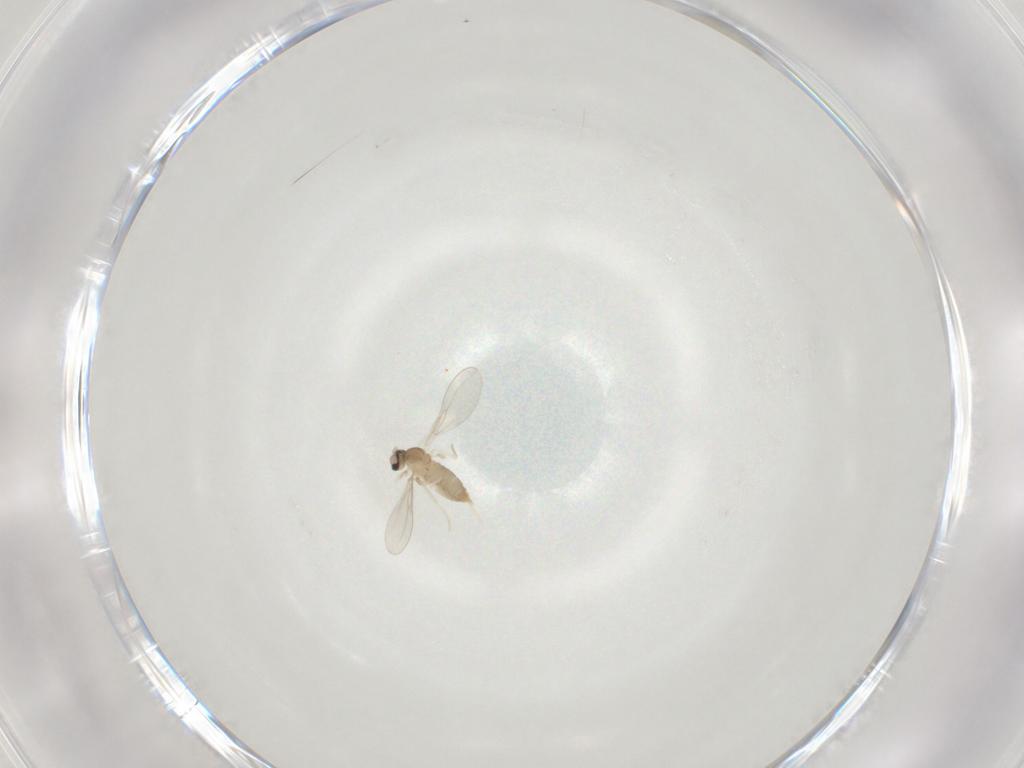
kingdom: Animalia
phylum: Arthropoda
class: Insecta
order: Diptera
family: Cecidomyiidae
